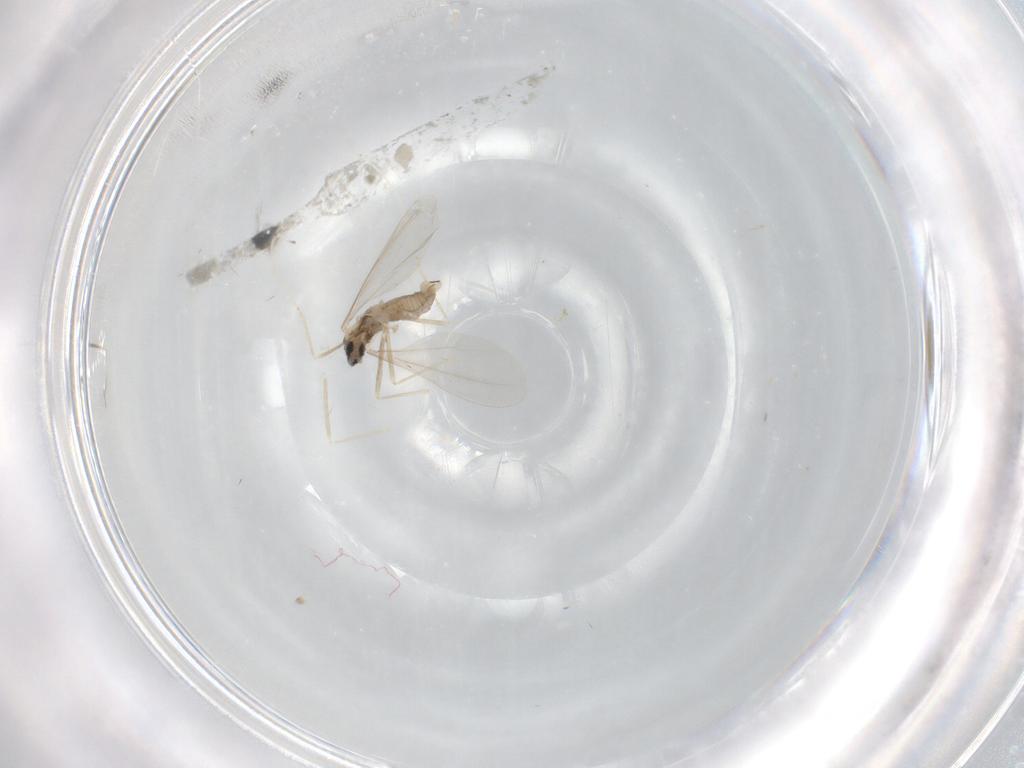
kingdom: Animalia
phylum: Arthropoda
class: Insecta
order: Diptera
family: Cecidomyiidae
